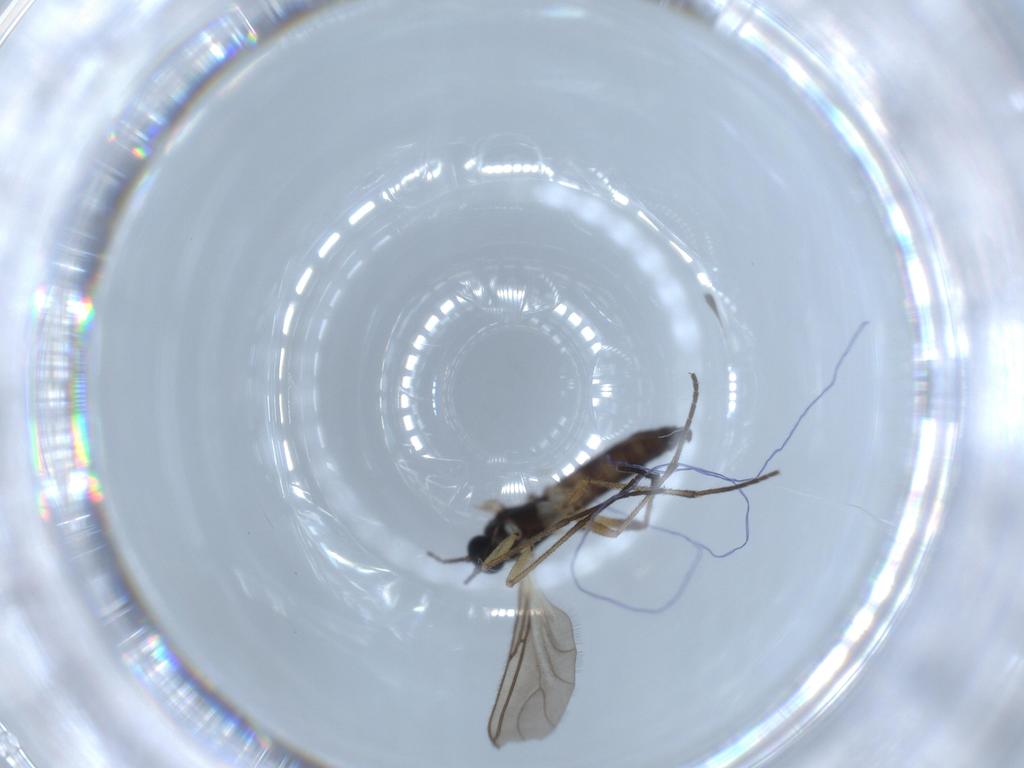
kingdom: Animalia
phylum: Arthropoda
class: Insecta
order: Diptera
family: Sciaridae
